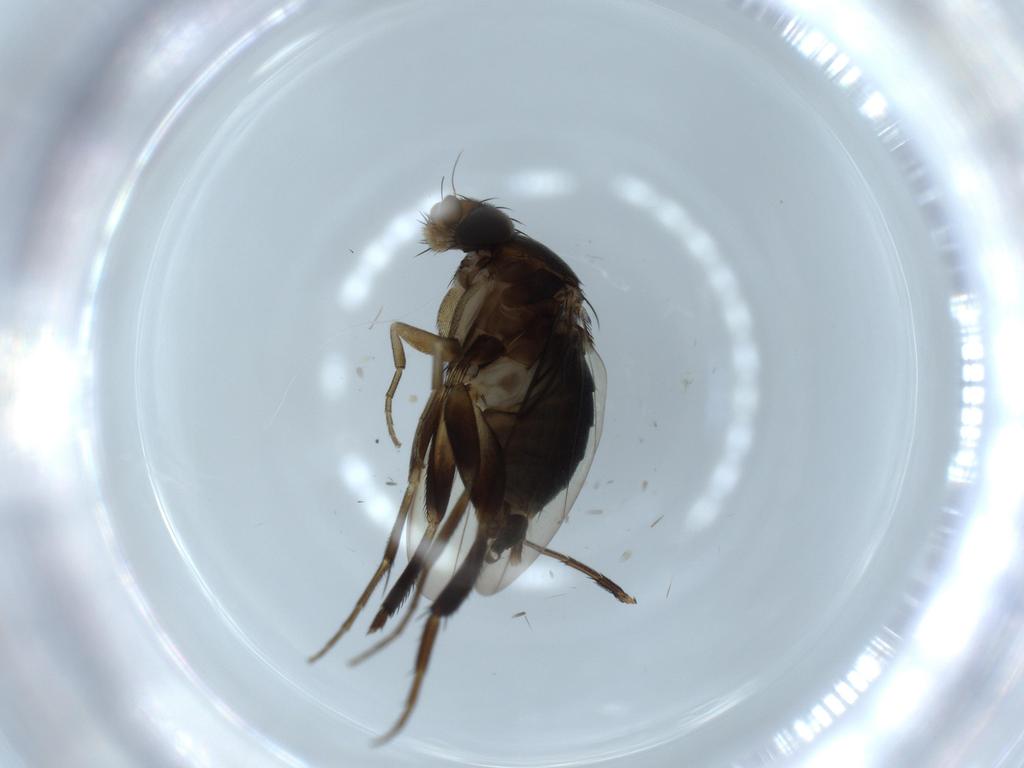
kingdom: Animalia
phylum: Arthropoda
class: Insecta
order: Diptera
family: Phoridae
